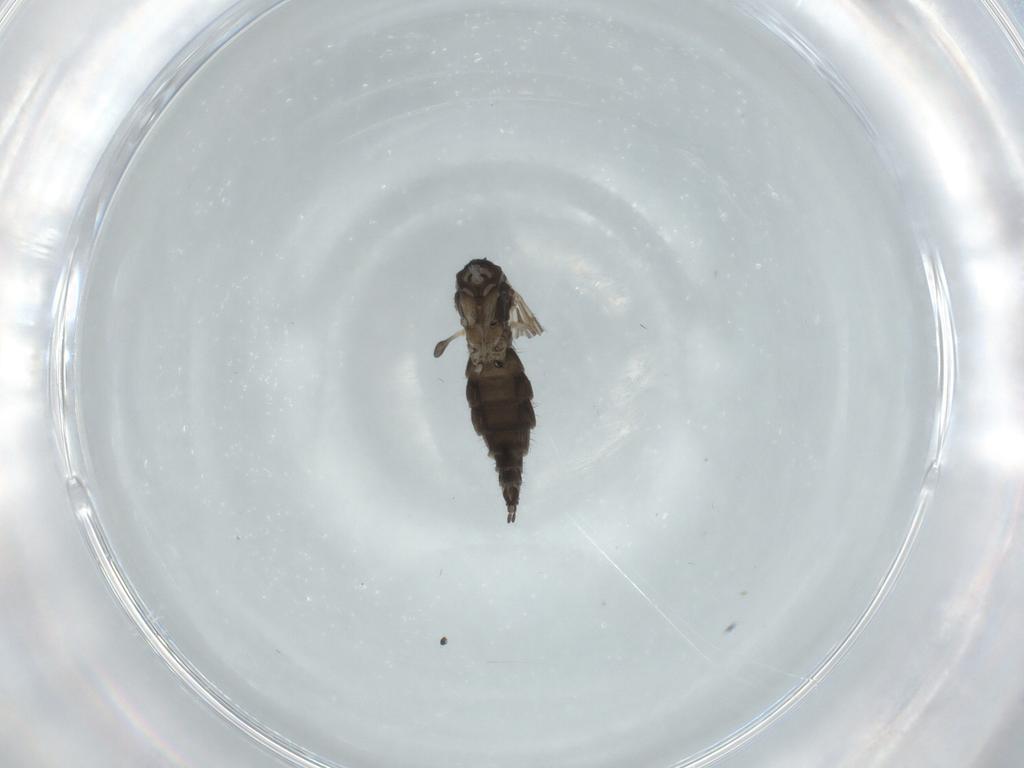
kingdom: Animalia
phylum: Arthropoda
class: Insecta
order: Diptera
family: Sciaridae
